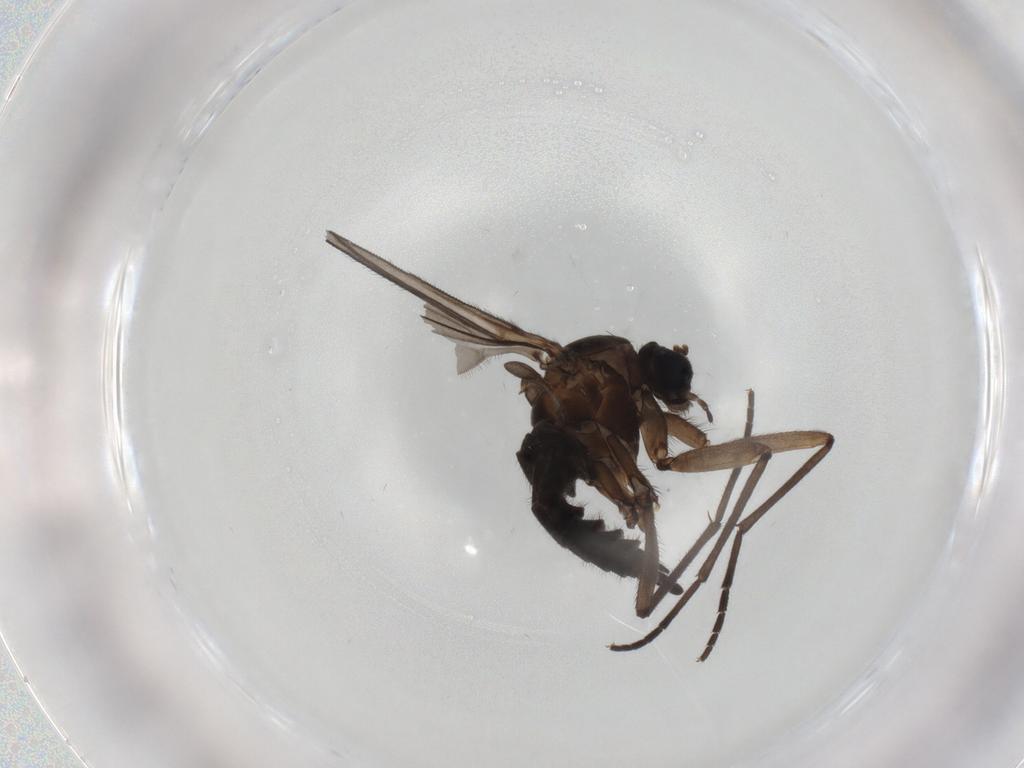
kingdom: Animalia
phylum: Arthropoda
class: Insecta
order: Diptera
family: Sciaridae
